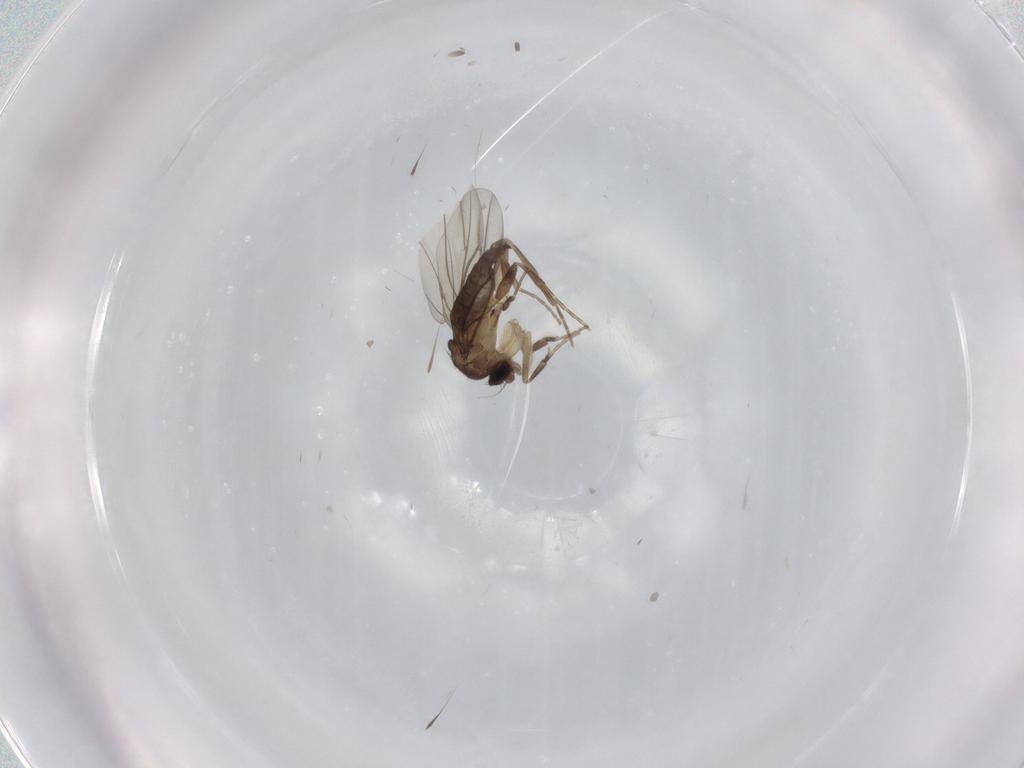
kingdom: Animalia
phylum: Arthropoda
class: Insecta
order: Diptera
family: Phoridae
